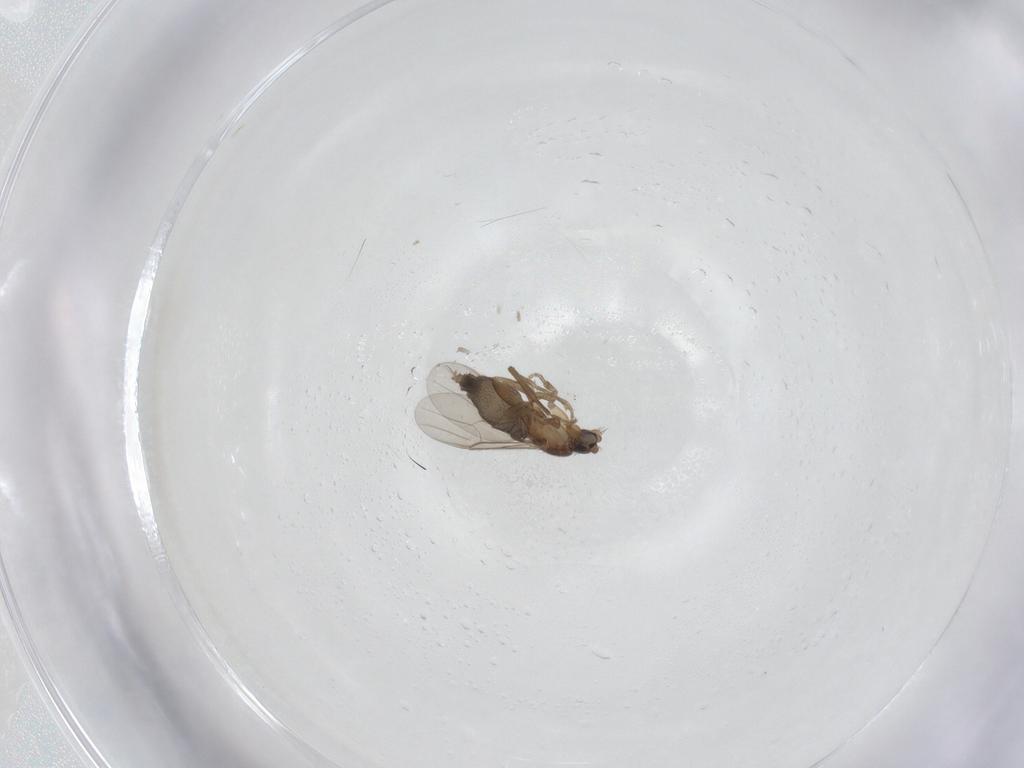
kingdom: Animalia
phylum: Arthropoda
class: Insecta
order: Diptera
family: Phoridae
